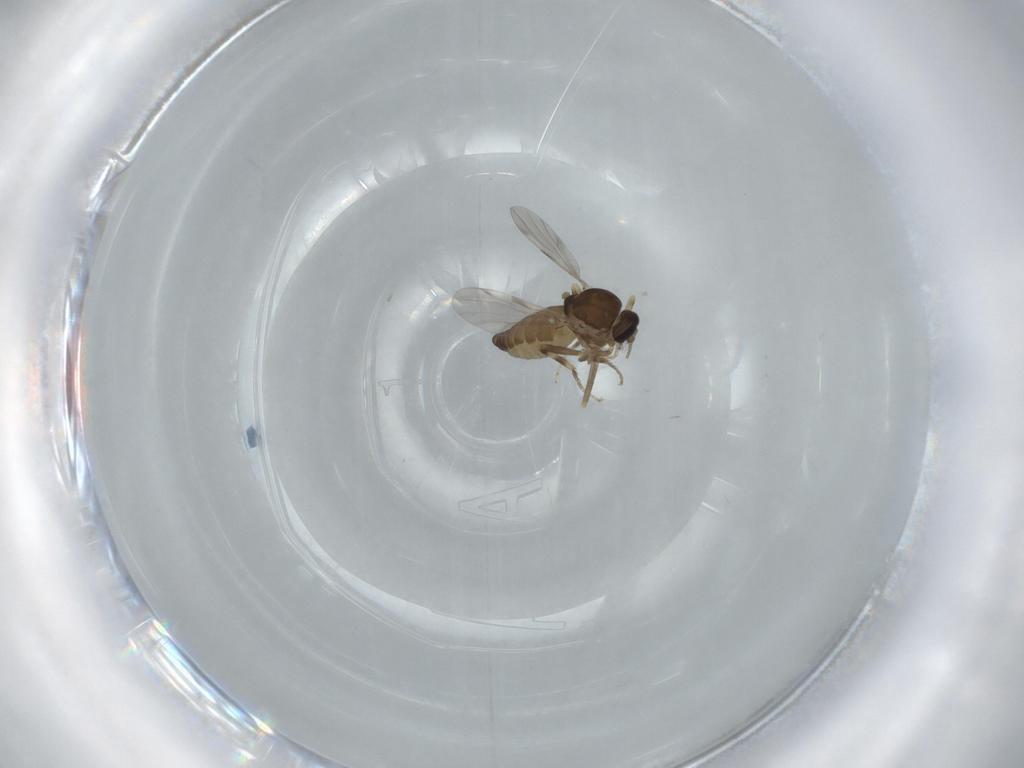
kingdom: Animalia
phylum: Arthropoda
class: Insecta
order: Diptera
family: Ceratopogonidae
